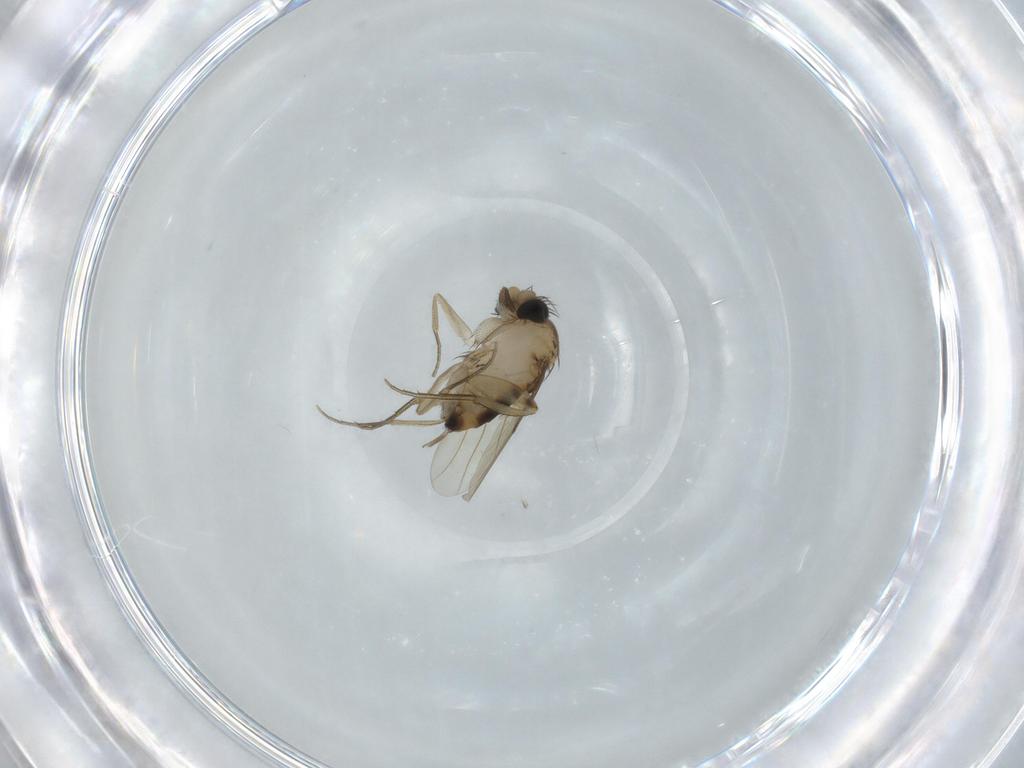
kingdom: Animalia
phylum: Arthropoda
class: Insecta
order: Diptera
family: Phoridae
